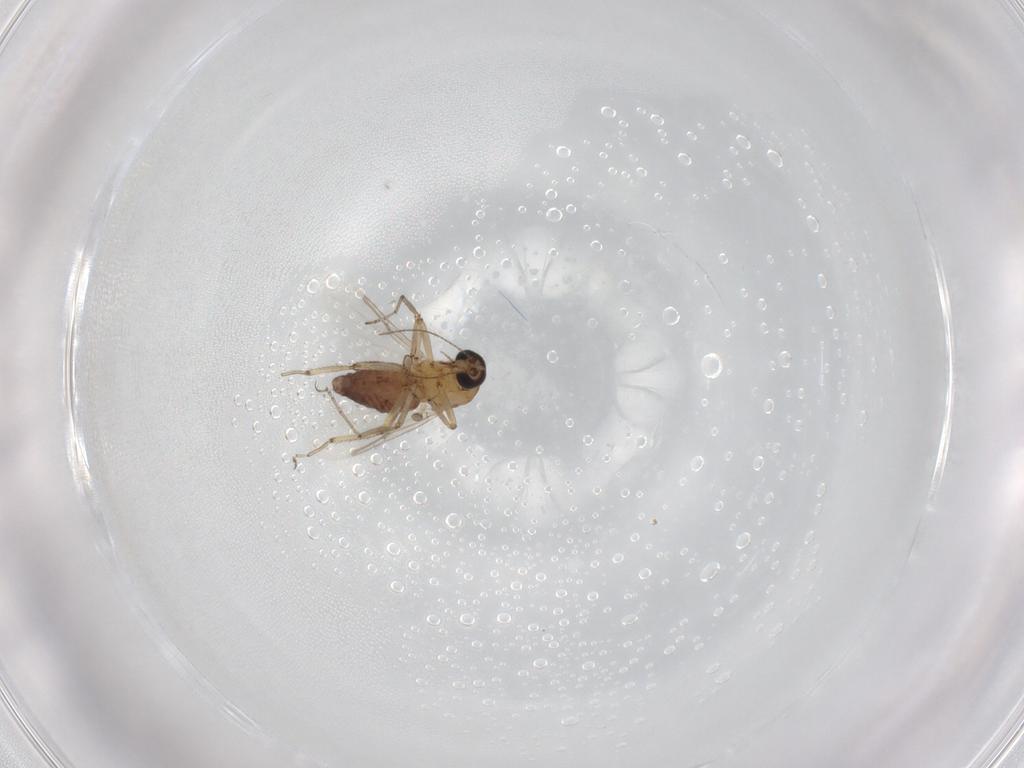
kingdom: Animalia
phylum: Arthropoda
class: Insecta
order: Diptera
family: Ceratopogonidae
